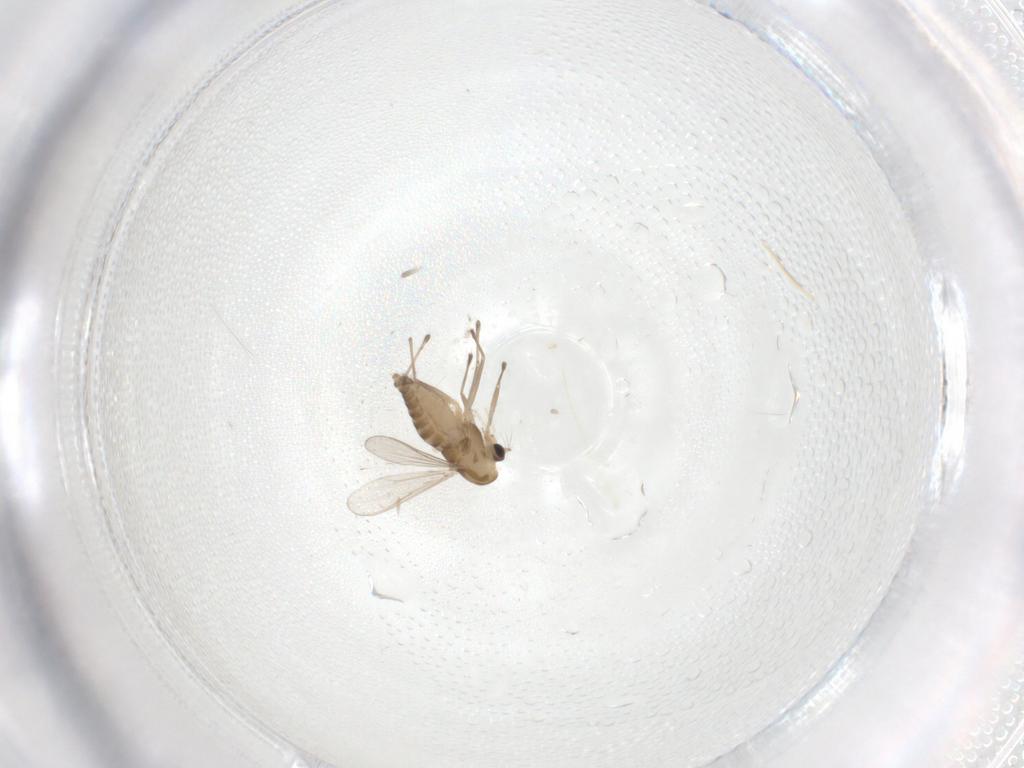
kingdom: Animalia
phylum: Arthropoda
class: Insecta
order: Diptera
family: Chironomidae
